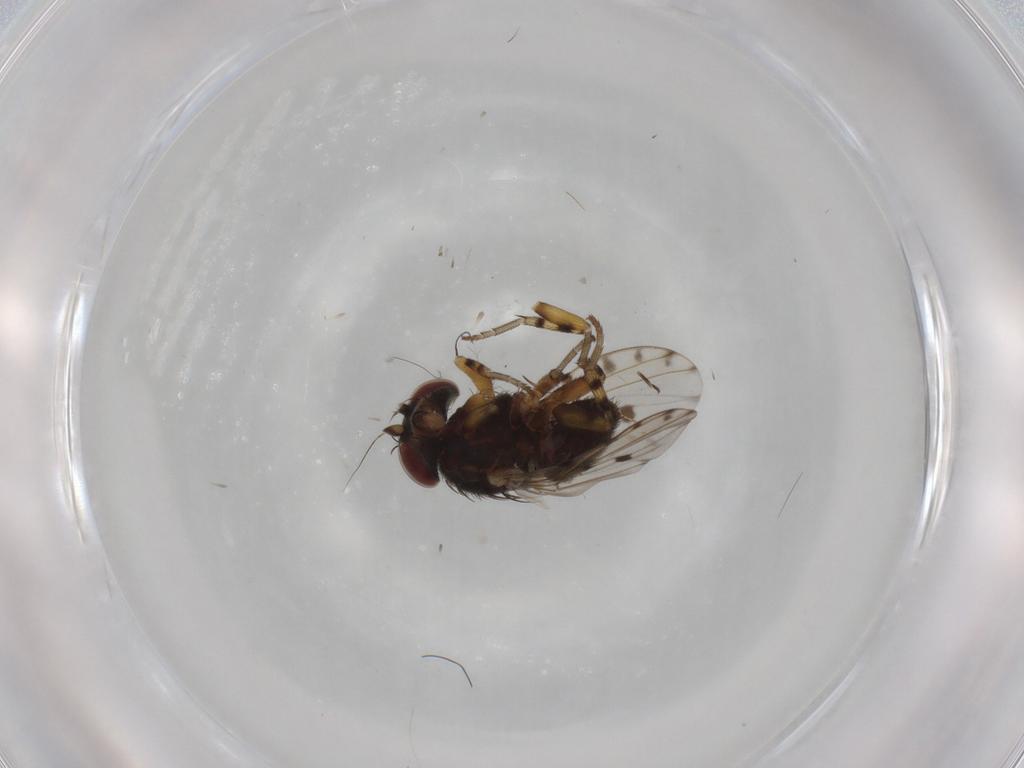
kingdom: Animalia
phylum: Arthropoda
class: Insecta
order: Diptera
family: Odiniidae
